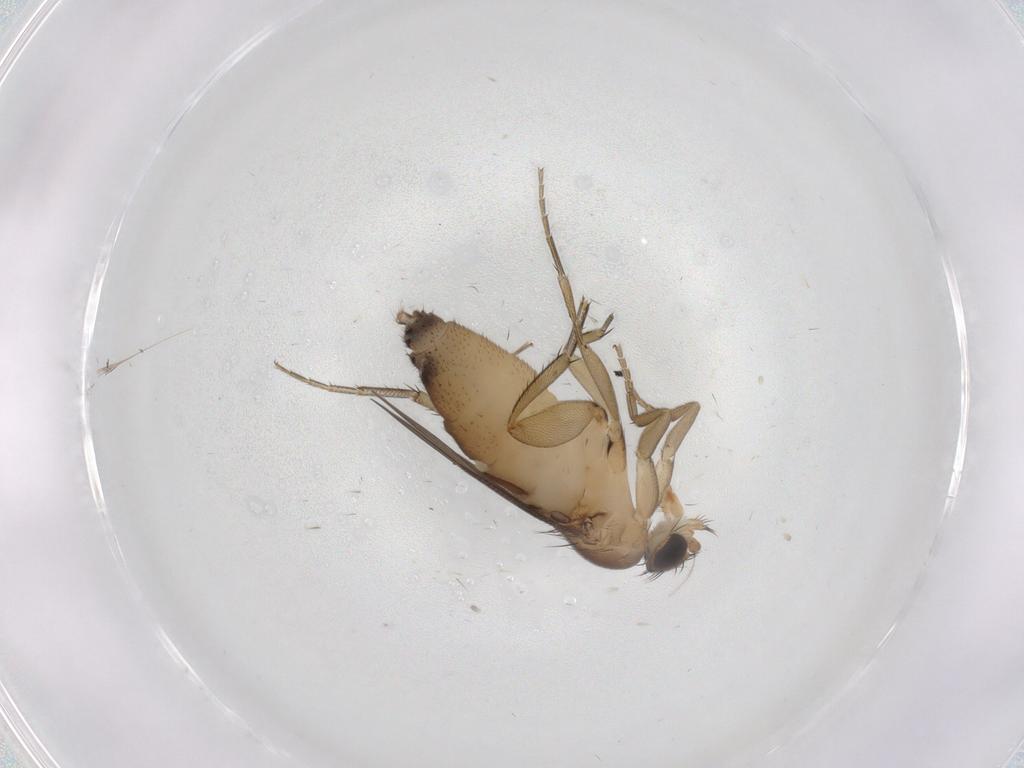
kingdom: Animalia
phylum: Arthropoda
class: Insecta
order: Diptera
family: Phoridae
